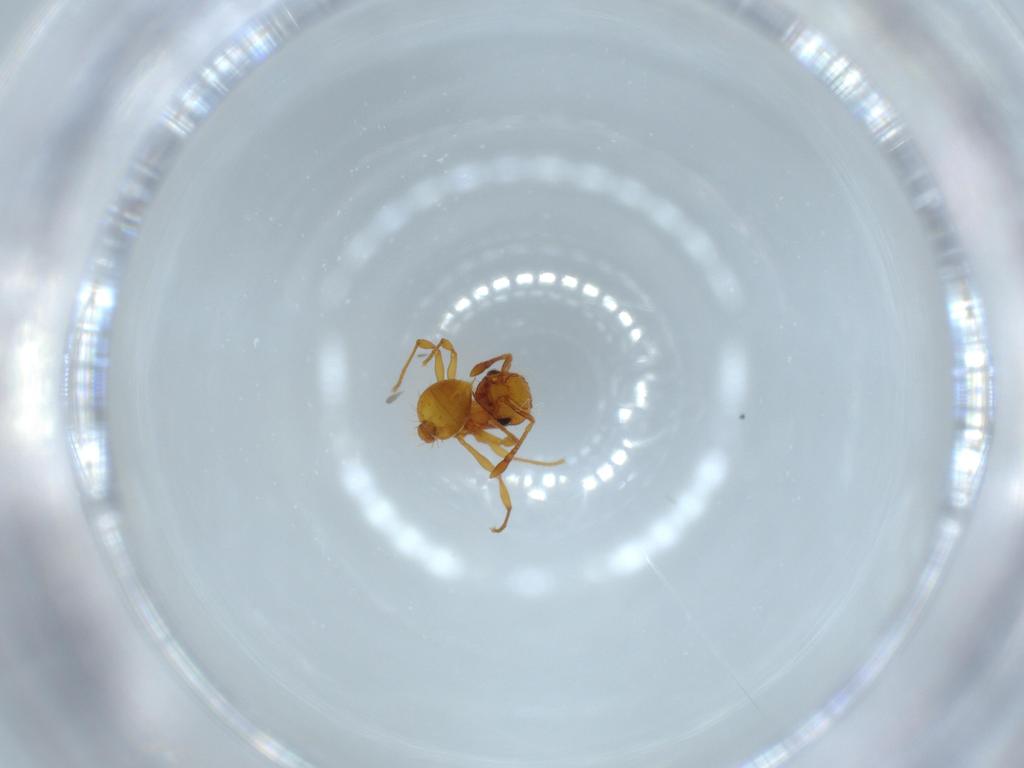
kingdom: Animalia
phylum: Arthropoda
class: Insecta
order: Hymenoptera
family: Formicidae
